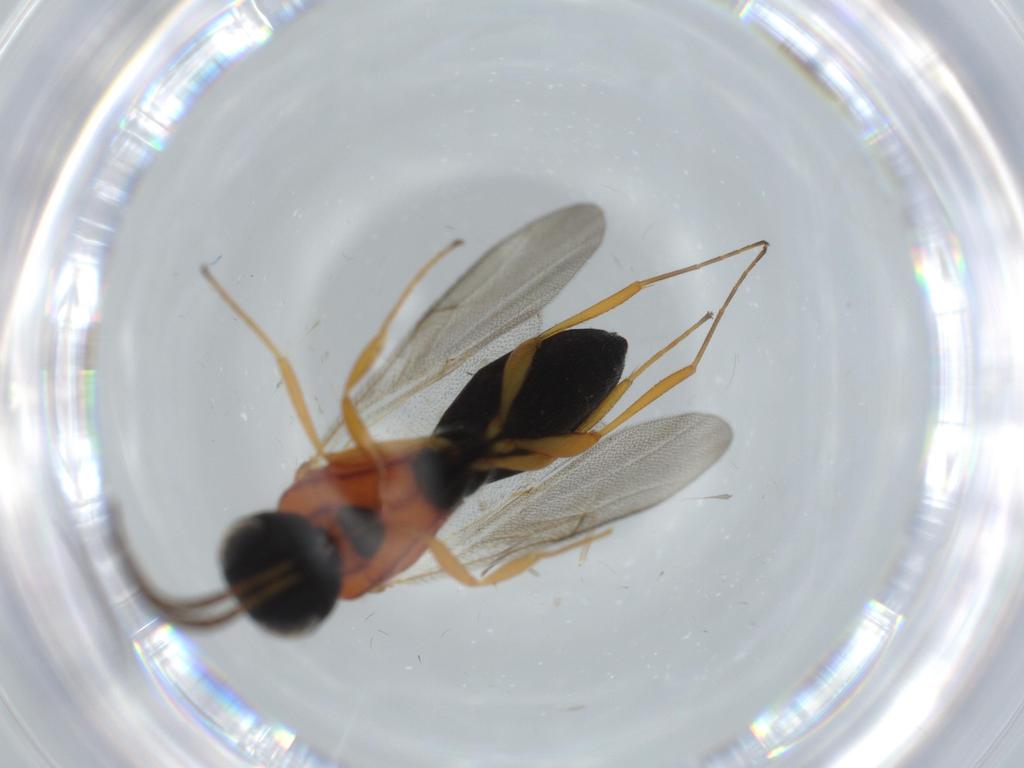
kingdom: Animalia
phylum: Arthropoda
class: Insecta
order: Hymenoptera
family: Scelionidae
